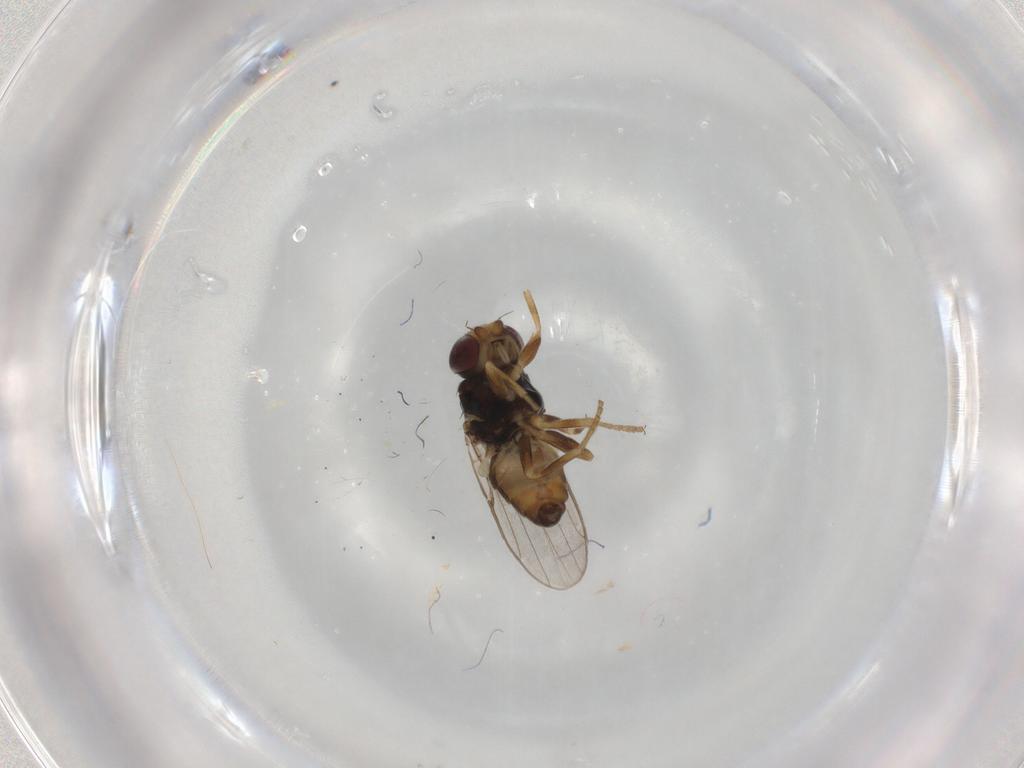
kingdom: Animalia
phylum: Arthropoda
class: Insecta
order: Diptera
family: Chloropidae
